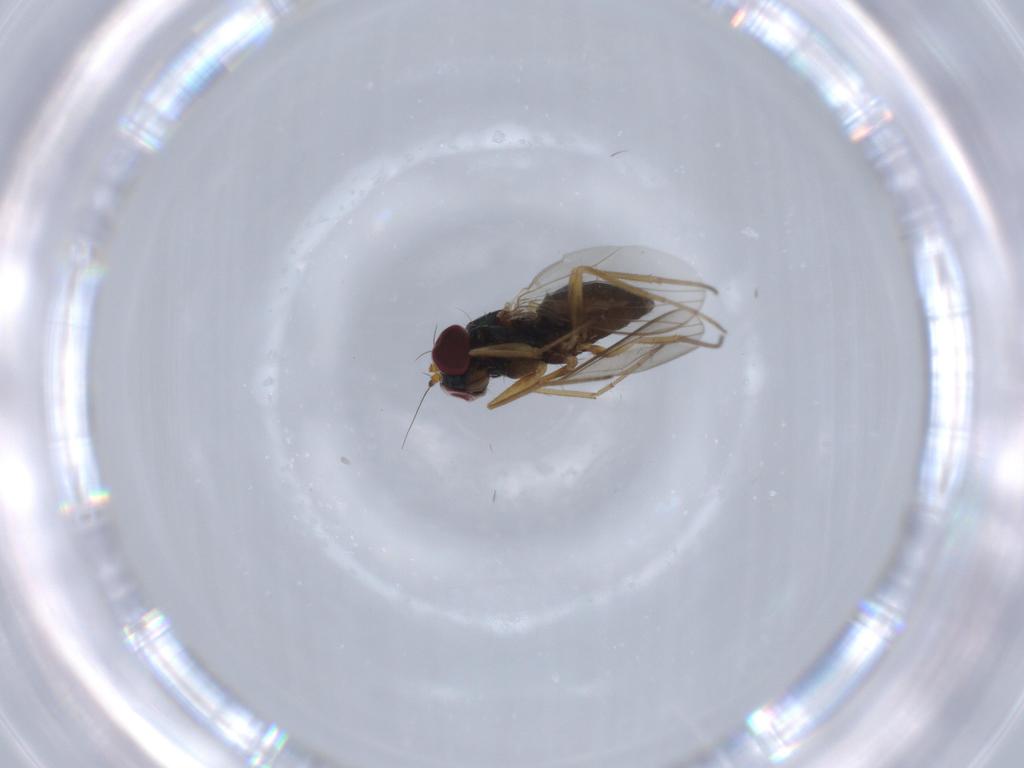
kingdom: Animalia
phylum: Arthropoda
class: Insecta
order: Diptera
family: Dolichopodidae
